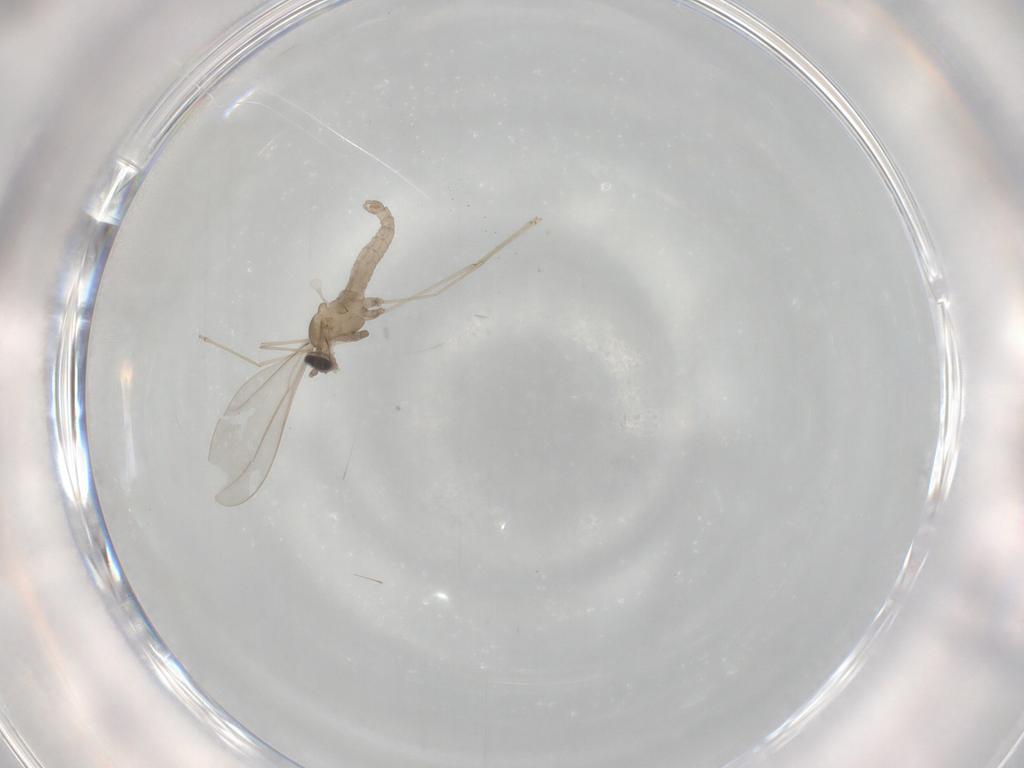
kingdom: Animalia
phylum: Arthropoda
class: Insecta
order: Diptera
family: Cecidomyiidae
